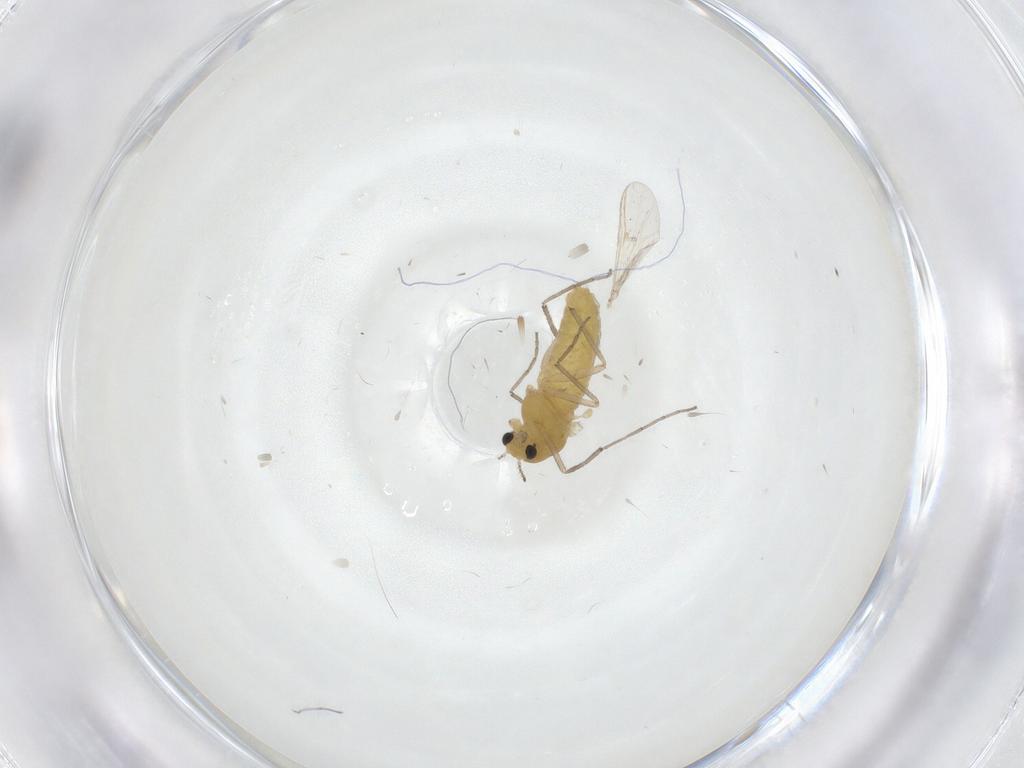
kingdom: Animalia
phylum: Arthropoda
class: Insecta
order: Diptera
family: Chironomidae
